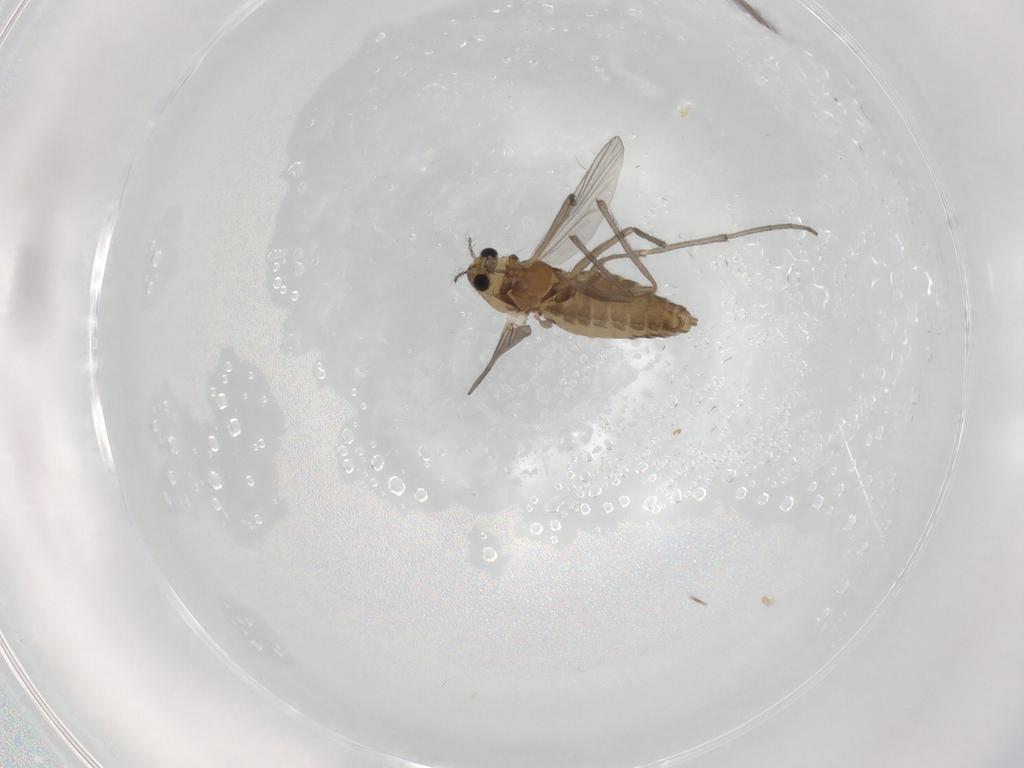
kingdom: Animalia
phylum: Arthropoda
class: Insecta
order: Diptera
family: Chironomidae
